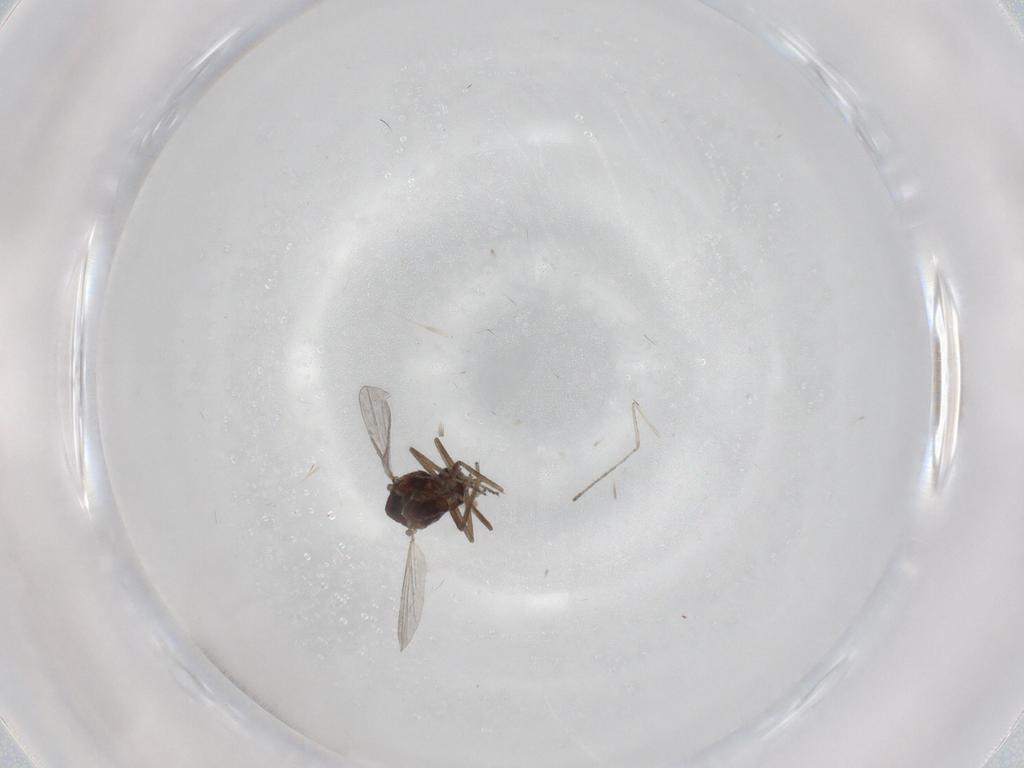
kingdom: Animalia
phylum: Arthropoda
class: Insecta
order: Diptera
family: Ceratopogonidae
